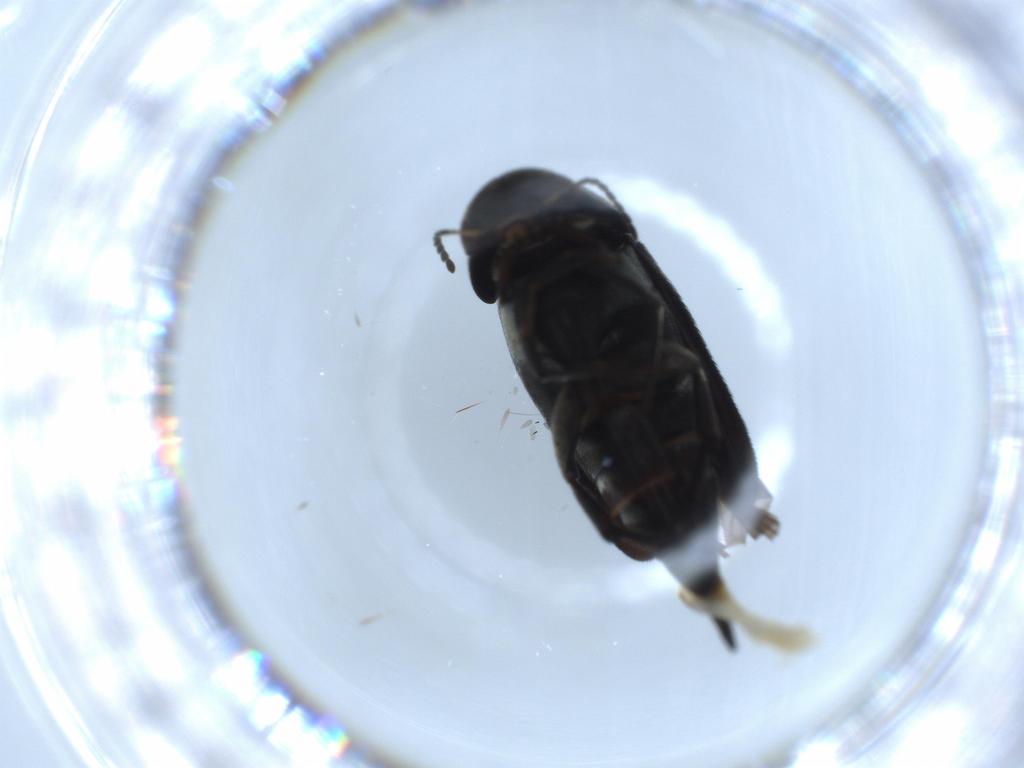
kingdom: Animalia
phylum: Arthropoda
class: Insecta
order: Coleoptera
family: Mordellidae
